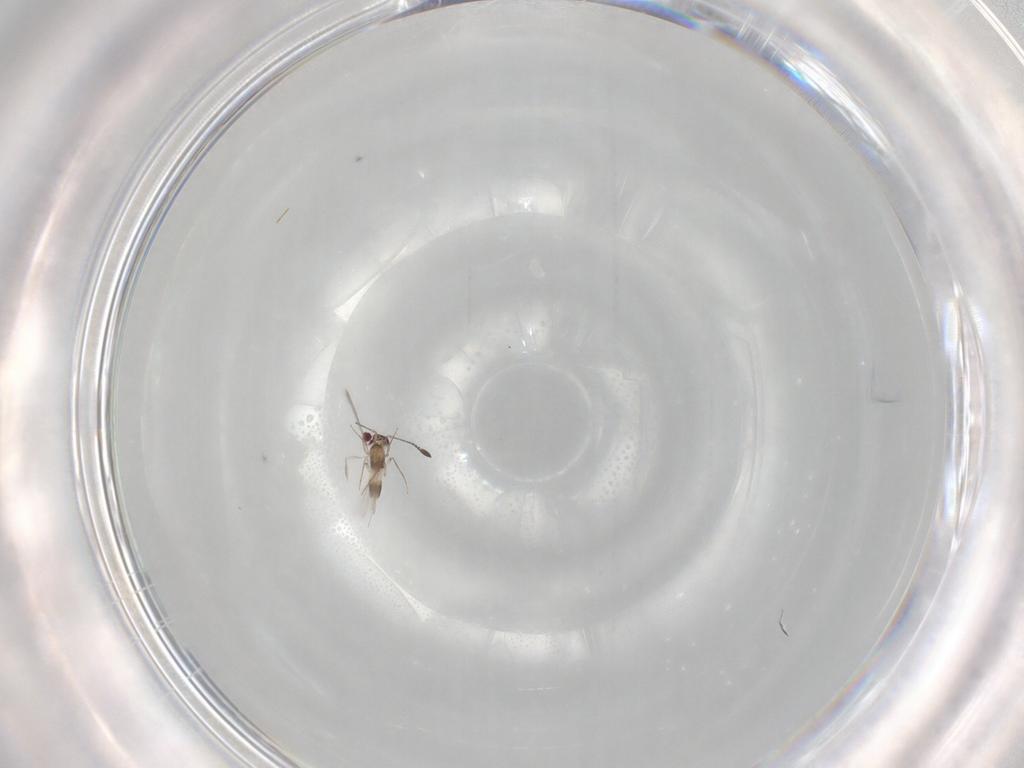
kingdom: Animalia
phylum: Arthropoda
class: Insecta
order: Hymenoptera
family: Mymaridae
